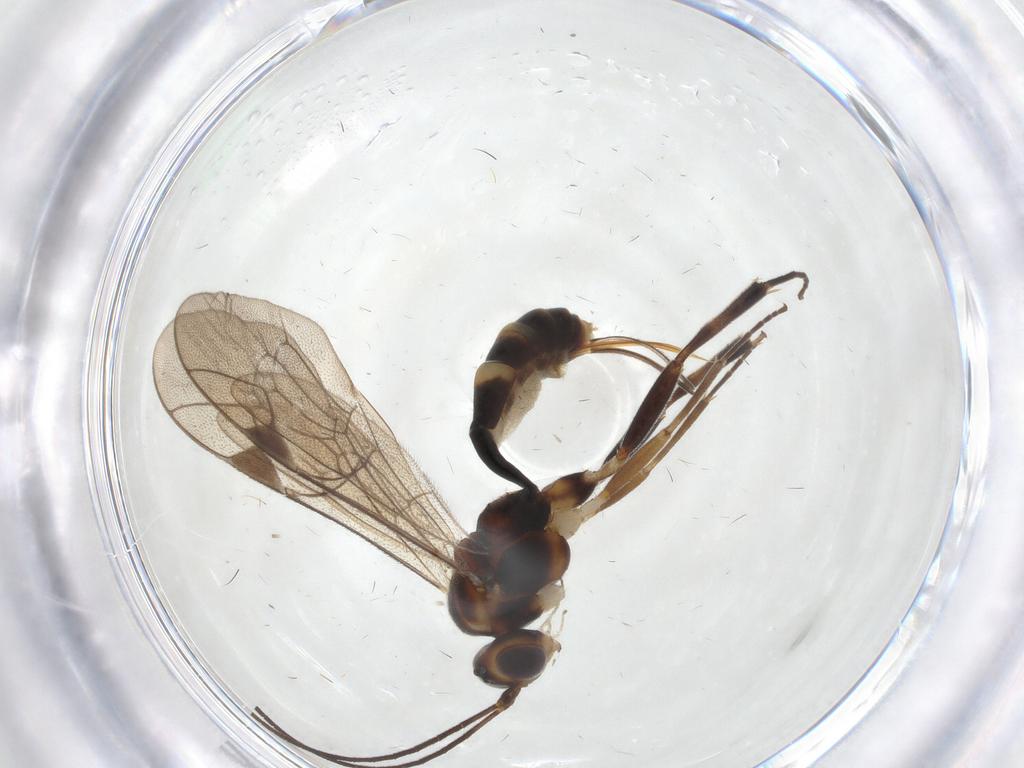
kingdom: Animalia
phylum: Arthropoda
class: Insecta
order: Hymenoptera
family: Ichneumonidae
